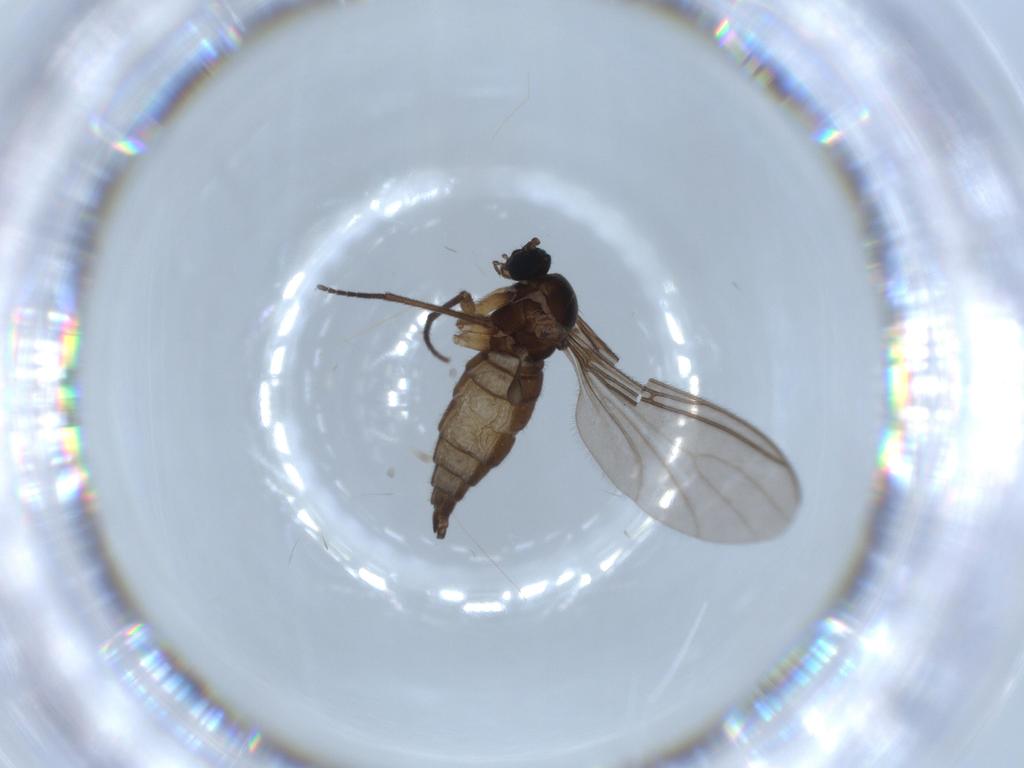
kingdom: Animalia
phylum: Arthropoda
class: Insecta
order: Diptera
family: Sciaridae
